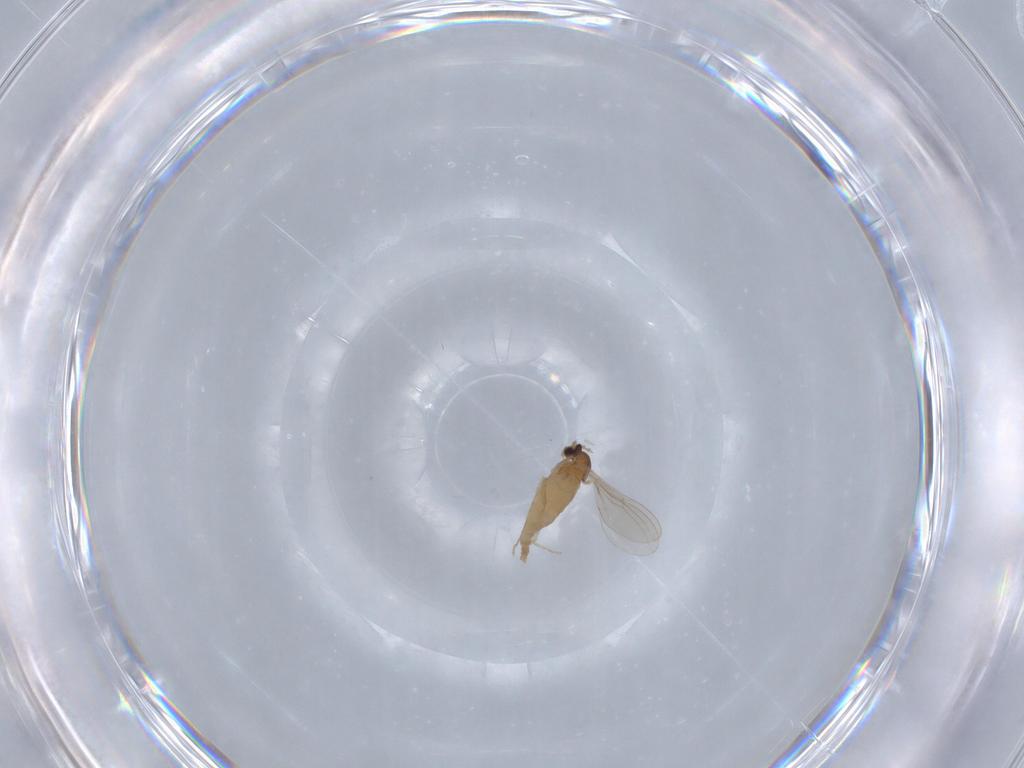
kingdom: Animalia
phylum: Arthropoda
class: Insecta
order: Diptera
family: Cecidomyiidae
